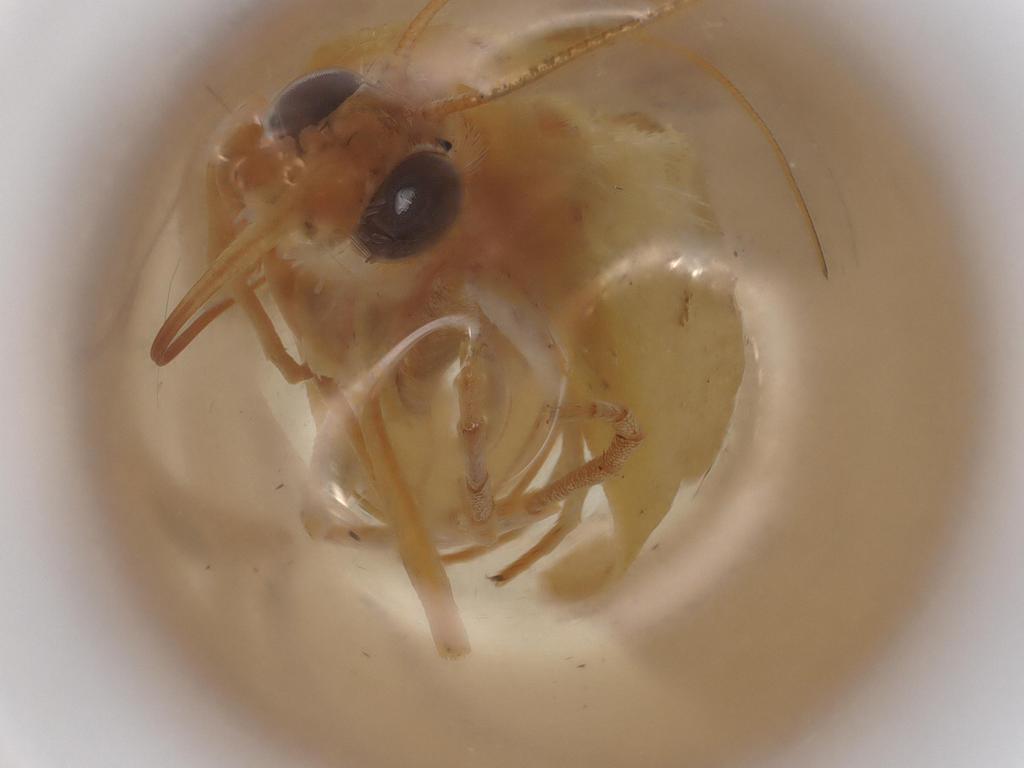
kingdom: Animalia
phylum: Arthropoda
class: Insecta
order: Lepidoptera
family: Crambidae
